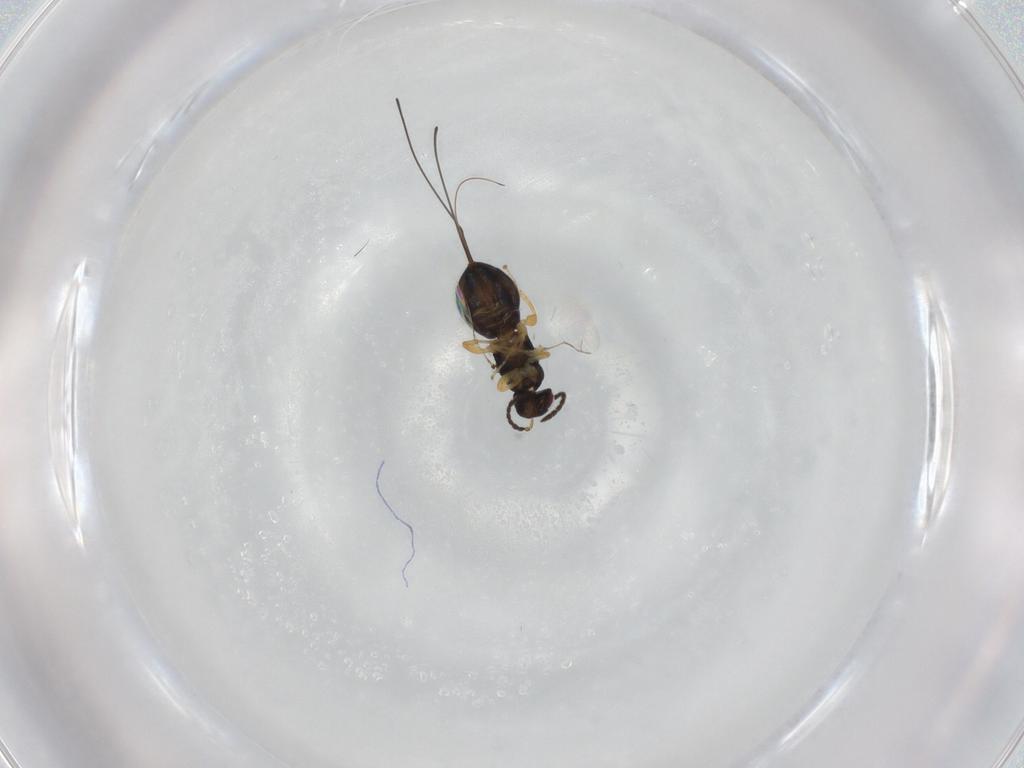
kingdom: Animalia
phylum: Arthropoda
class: Insecta
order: Hymenoptera
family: Agaonidae
